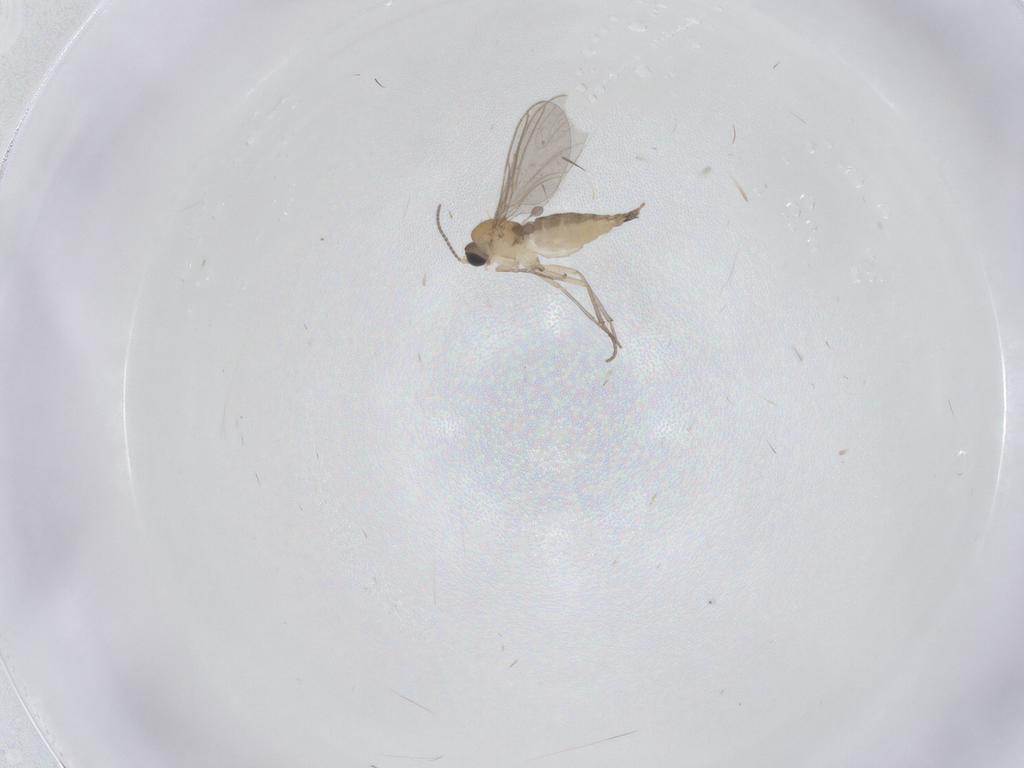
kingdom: Animalia
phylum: Arthropoda
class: Insecta
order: Diptera
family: Sciaridae
